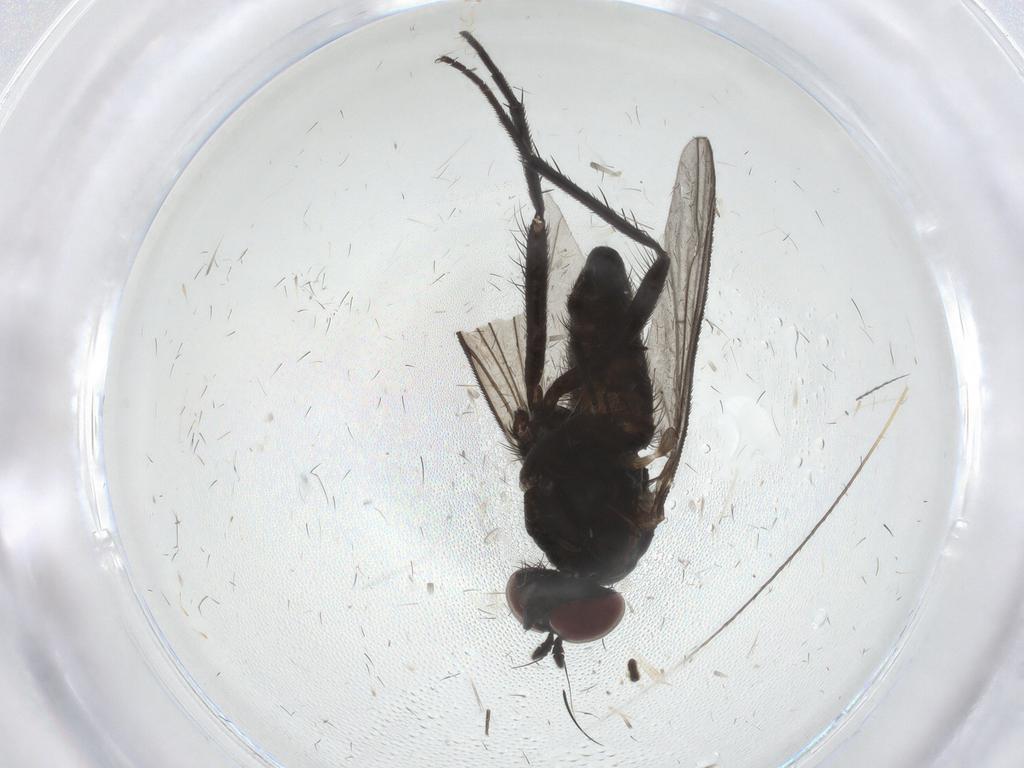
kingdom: Animalia
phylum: Arthropoda
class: Insecta
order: Diptera
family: Dolichopodidae
